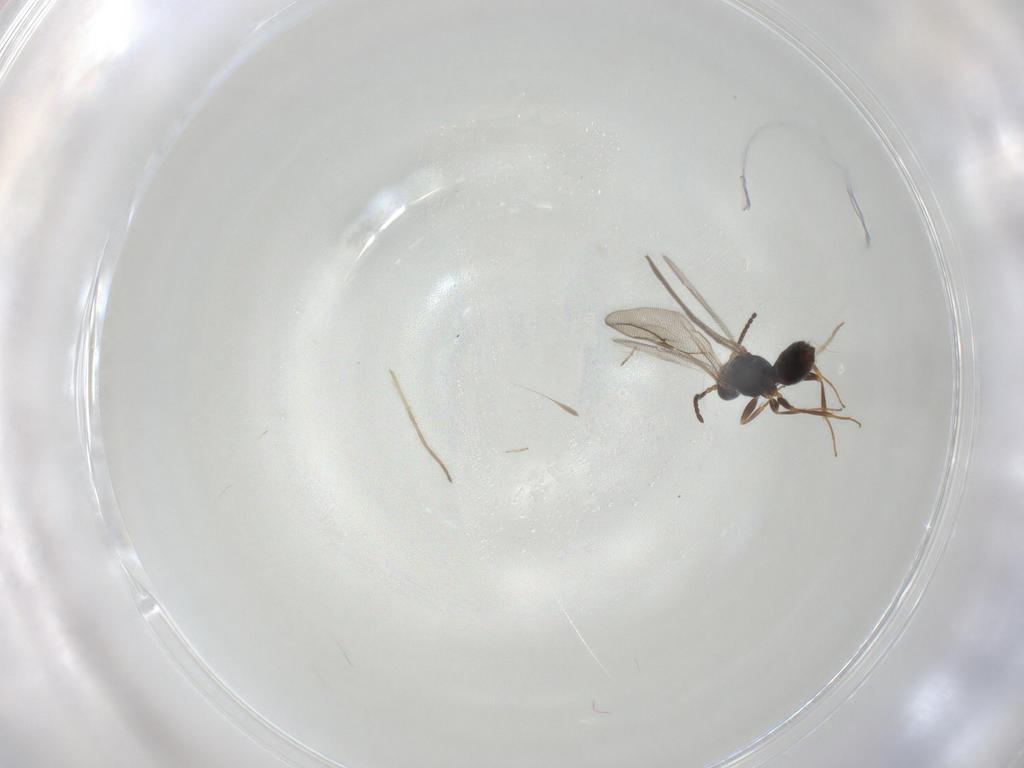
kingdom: Animalia
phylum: Arthropoda
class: Insecta
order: Hymenoptera
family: Bethylidae
